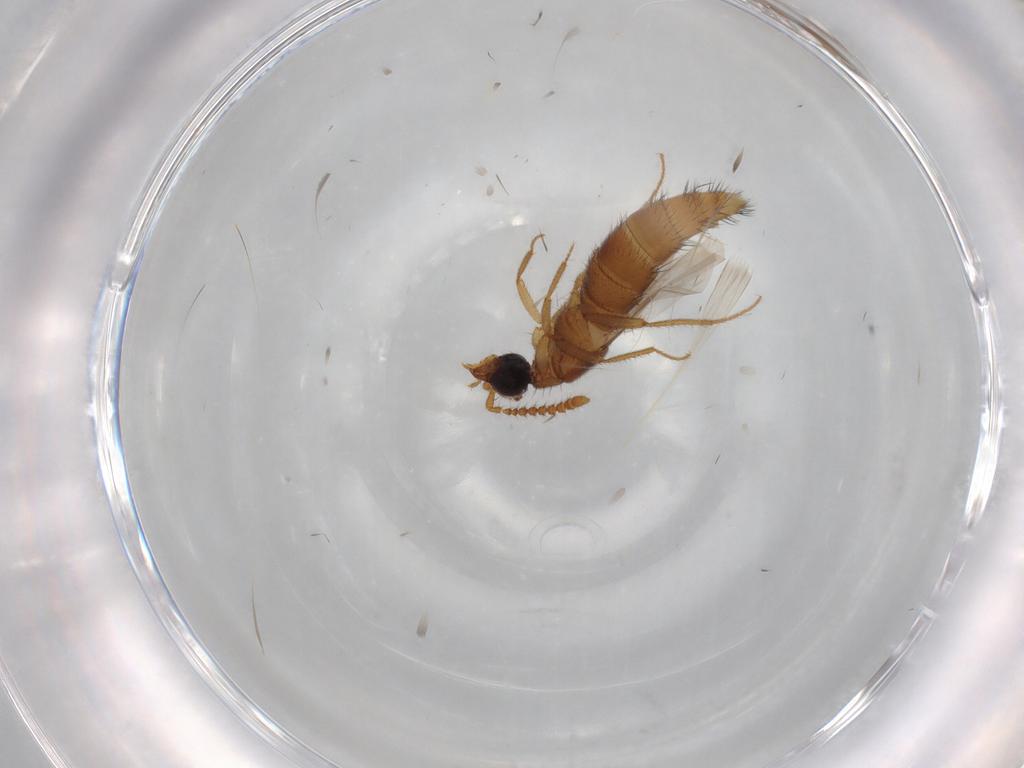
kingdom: Animalia
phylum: Arthropoda
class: Insecta
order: Coleoptera
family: Staphylinidae
